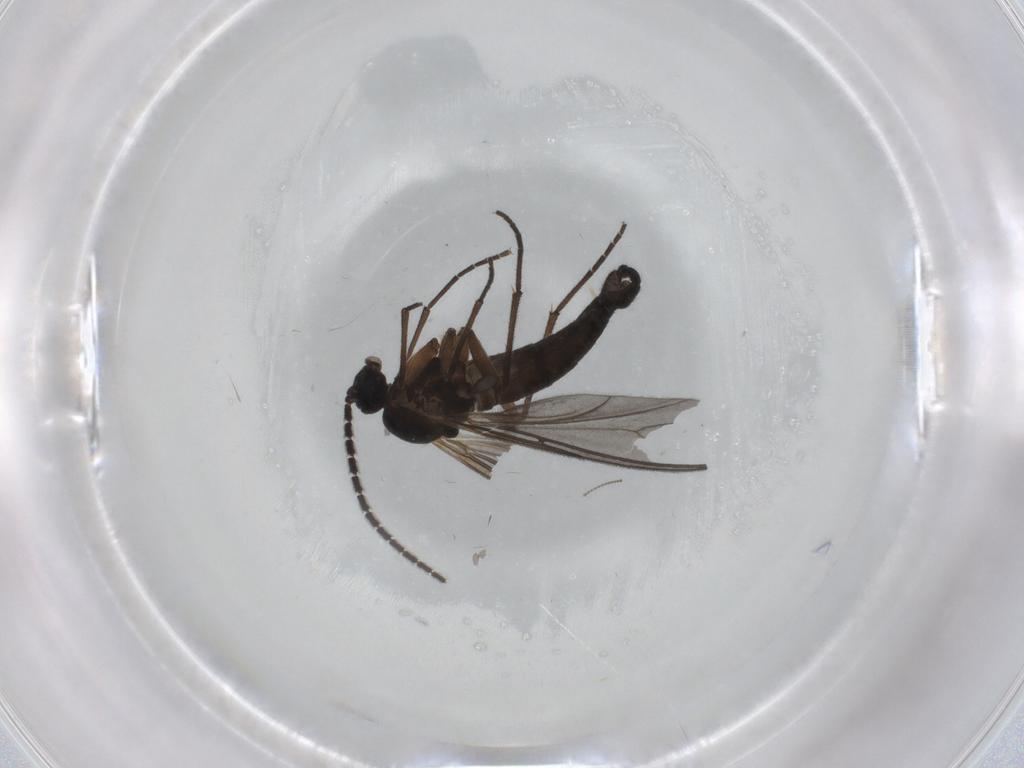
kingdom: Animalia
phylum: Arthropoda
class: Insecta
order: Diptera
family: Sciaridae
